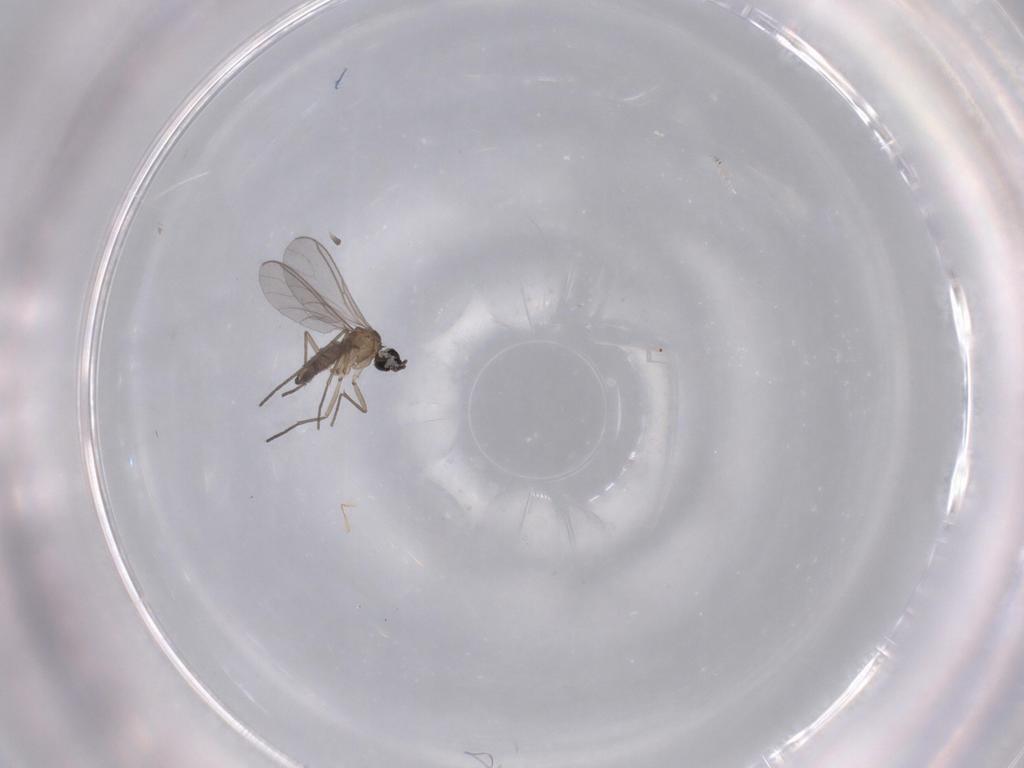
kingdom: Animalia
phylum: Arthropoda
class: Insecta
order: Diptera
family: Sciaridae
